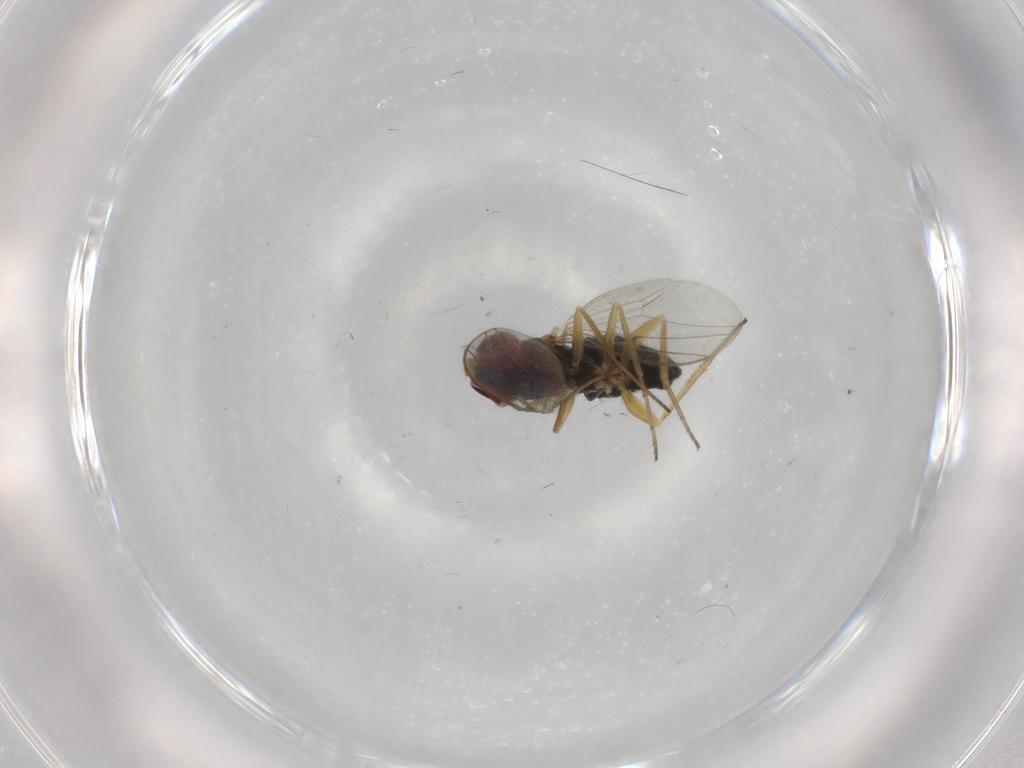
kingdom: Animalia
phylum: Arthropoda
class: Insecta
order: Diptera
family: Dolichopodidae
